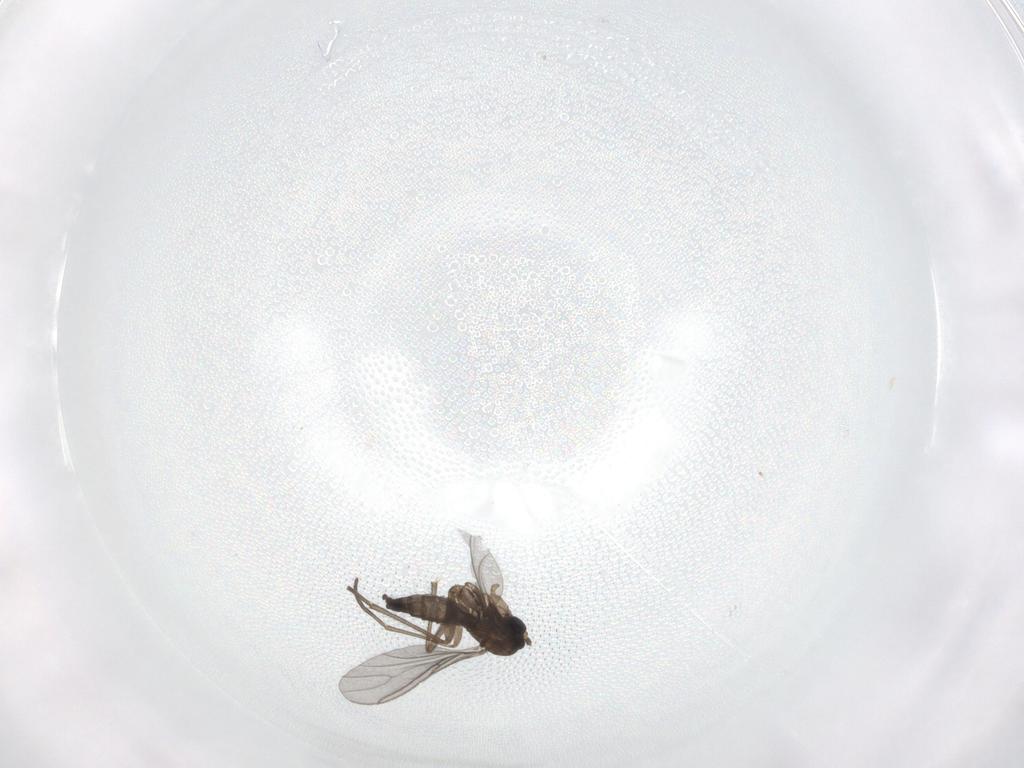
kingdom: Animalia
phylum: Arthropoda
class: Insecta
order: Diptera
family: Sciaridae
